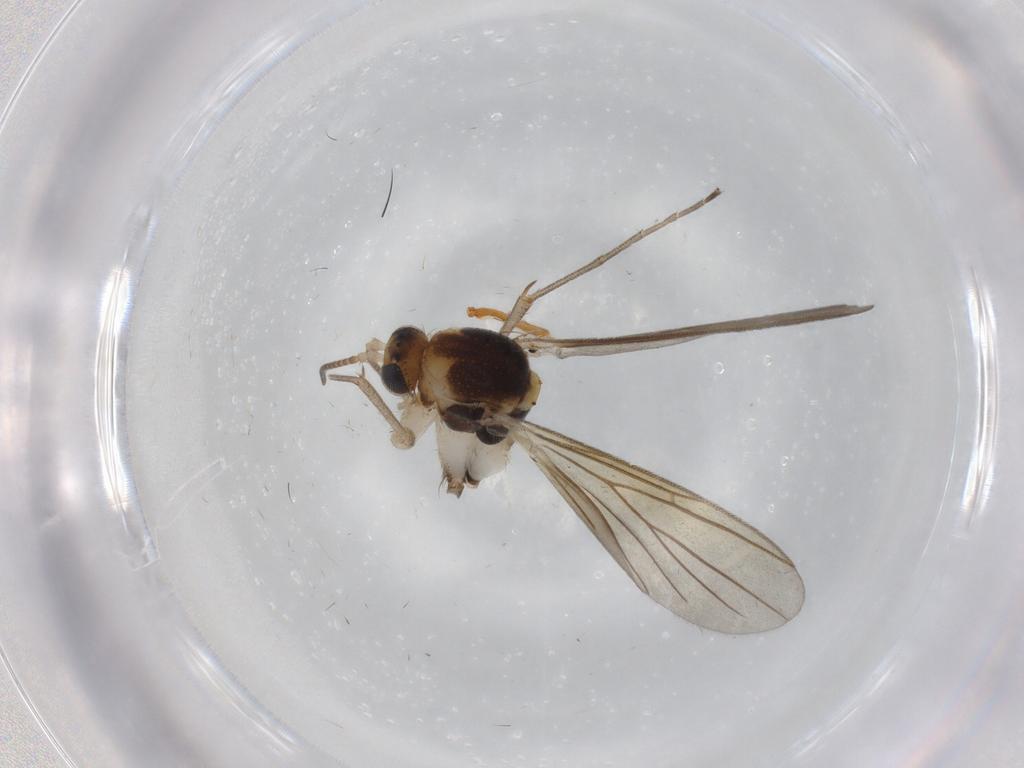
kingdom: Animalia
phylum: Arthropoda
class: Insecta
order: Diptera
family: Mycetophilidae
